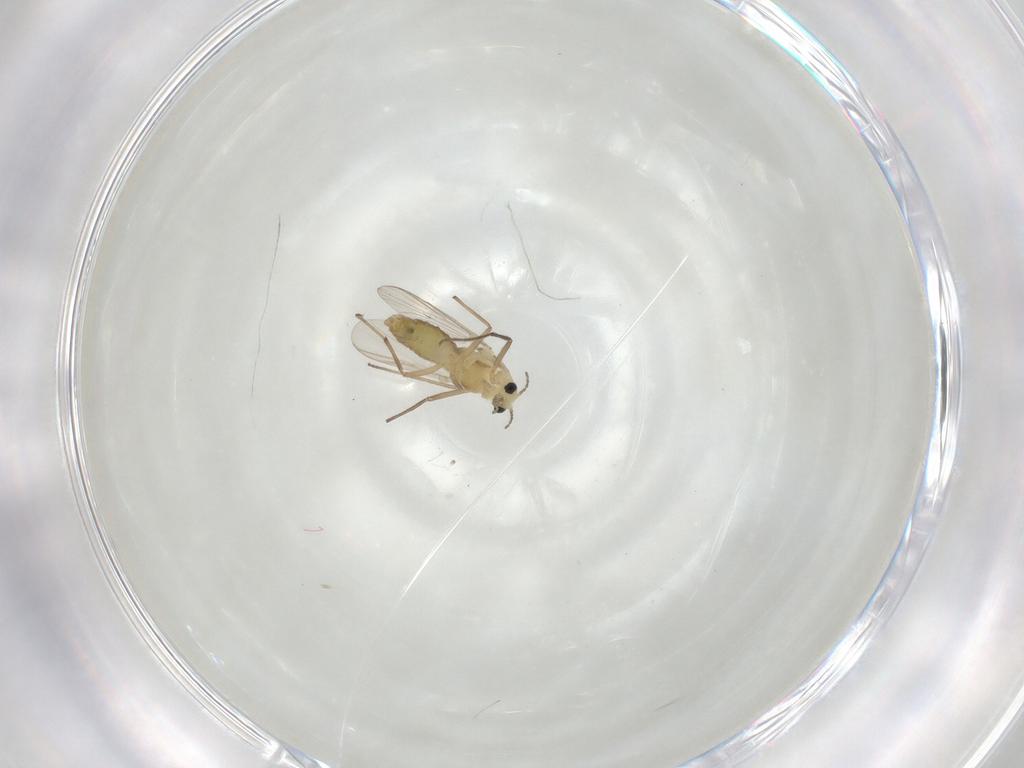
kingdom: Animalia
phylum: Arthropoda
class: Insecta
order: Diptera
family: Chironomidae
